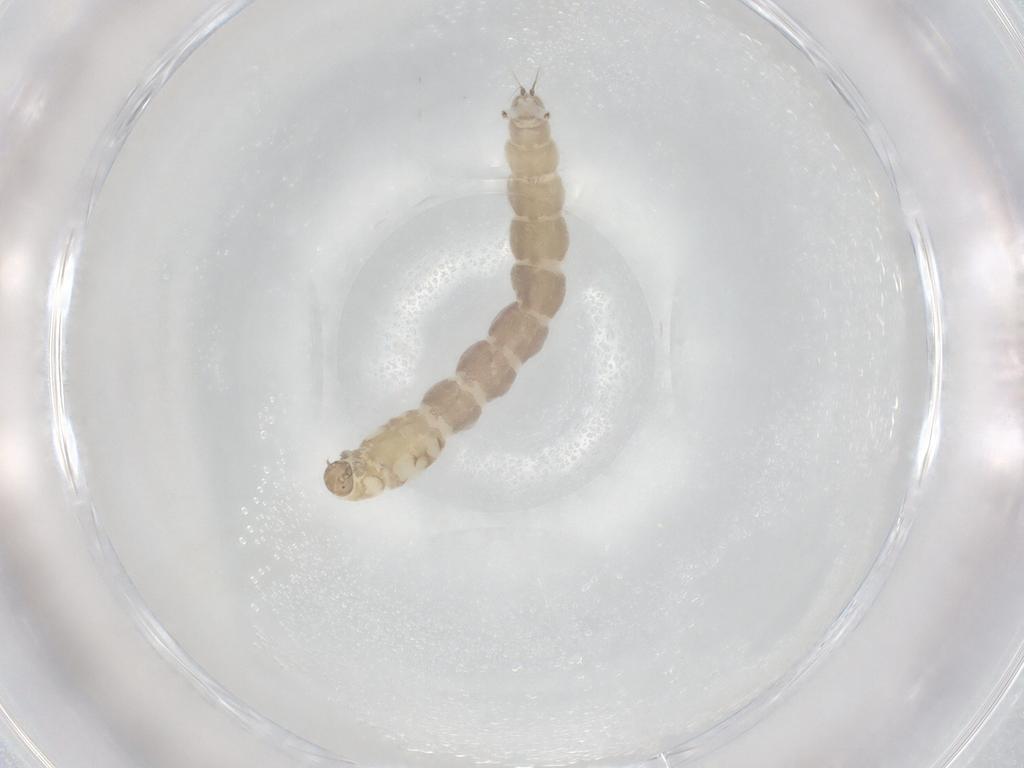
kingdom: Animalia
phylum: Arthropoda
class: Insecta
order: Diptera
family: Chironomidae
